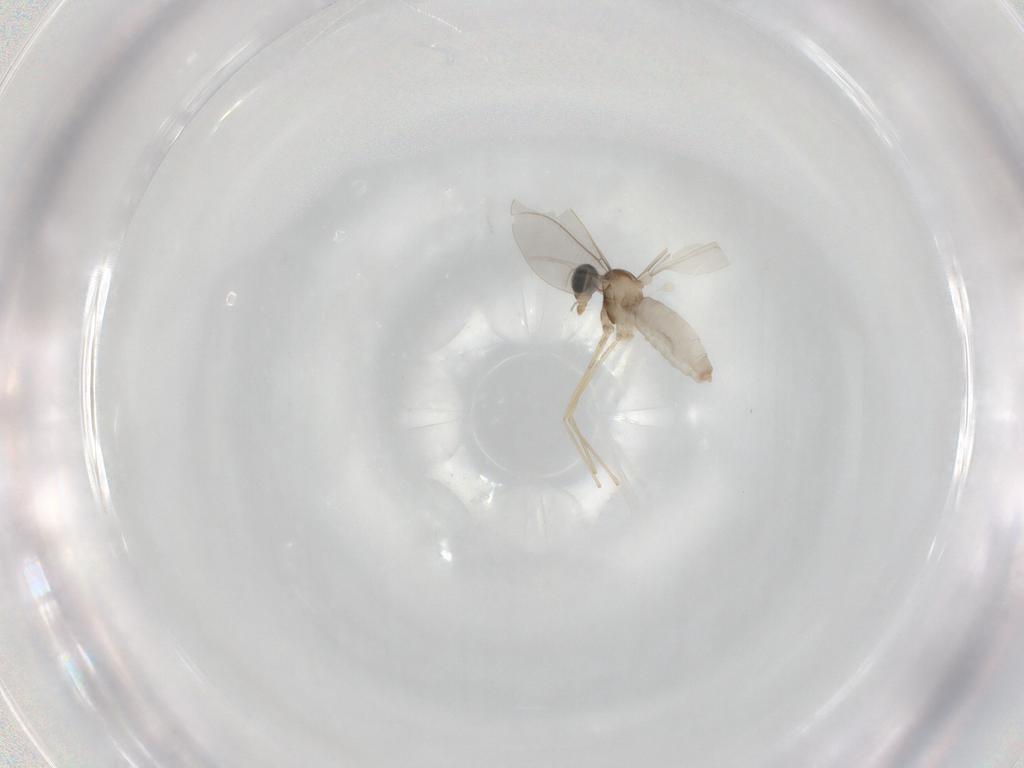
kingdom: Animalia
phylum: Arthropoda
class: Insecta
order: Diptera
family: Cecidomyiidae
